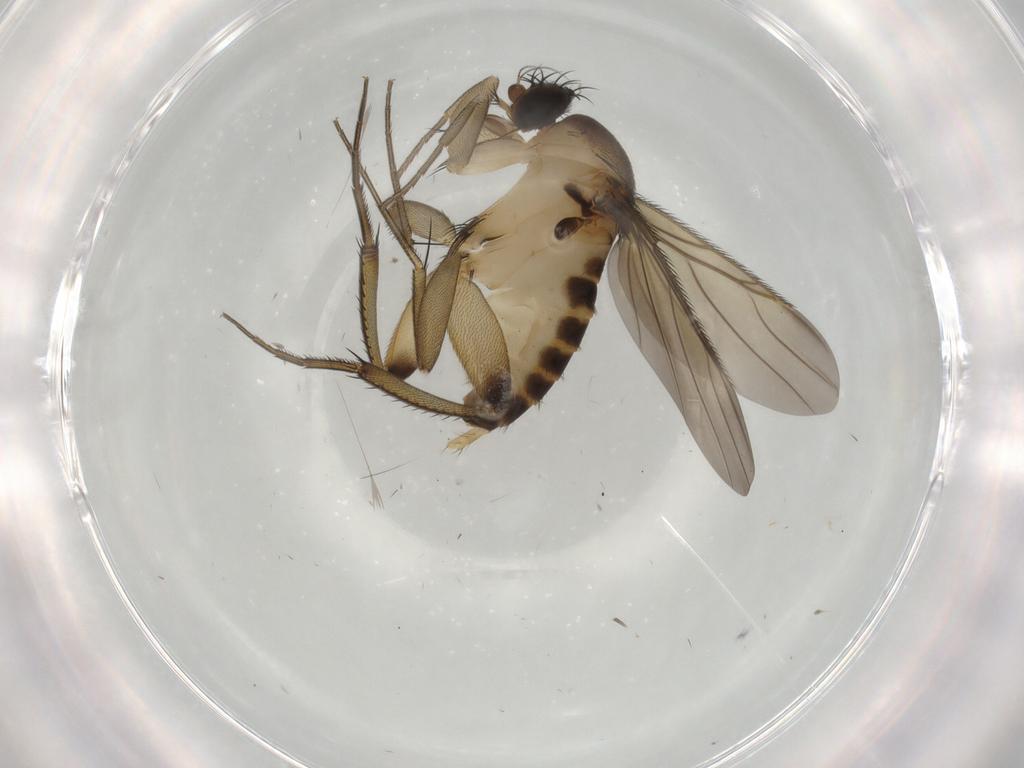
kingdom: Animalia
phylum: Arthropoda
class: Insecta
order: Diptera
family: Phoridae
